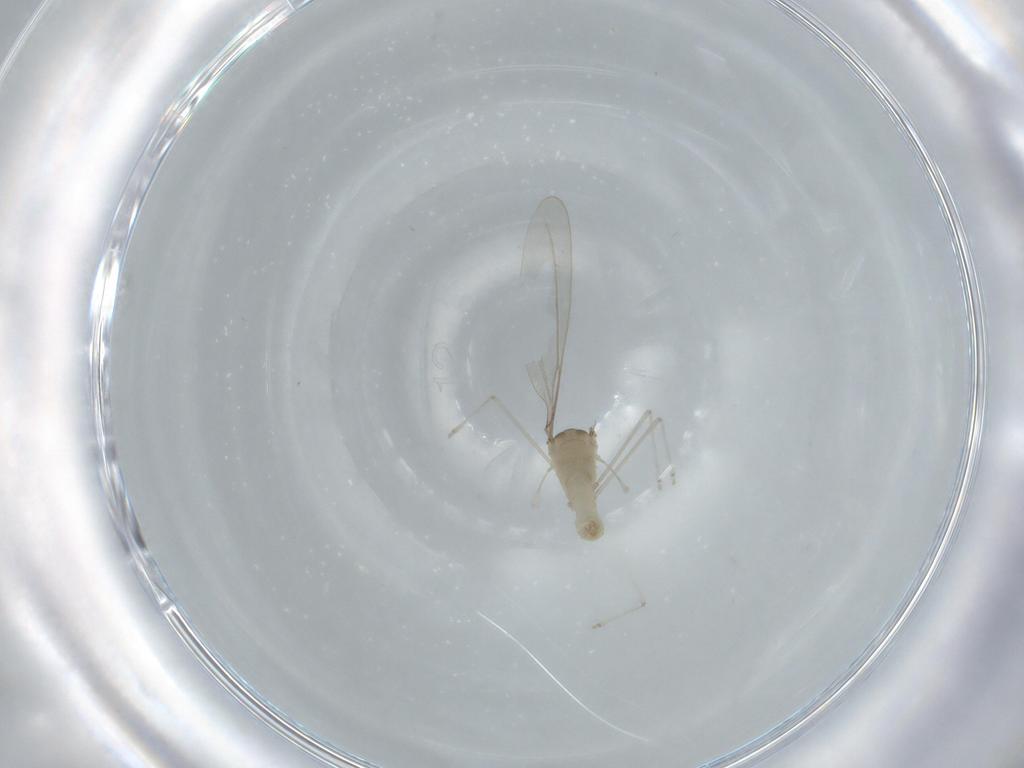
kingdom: Animalia
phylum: Arthropoda
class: Insecta
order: Diptera
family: Cecidomyiidae
